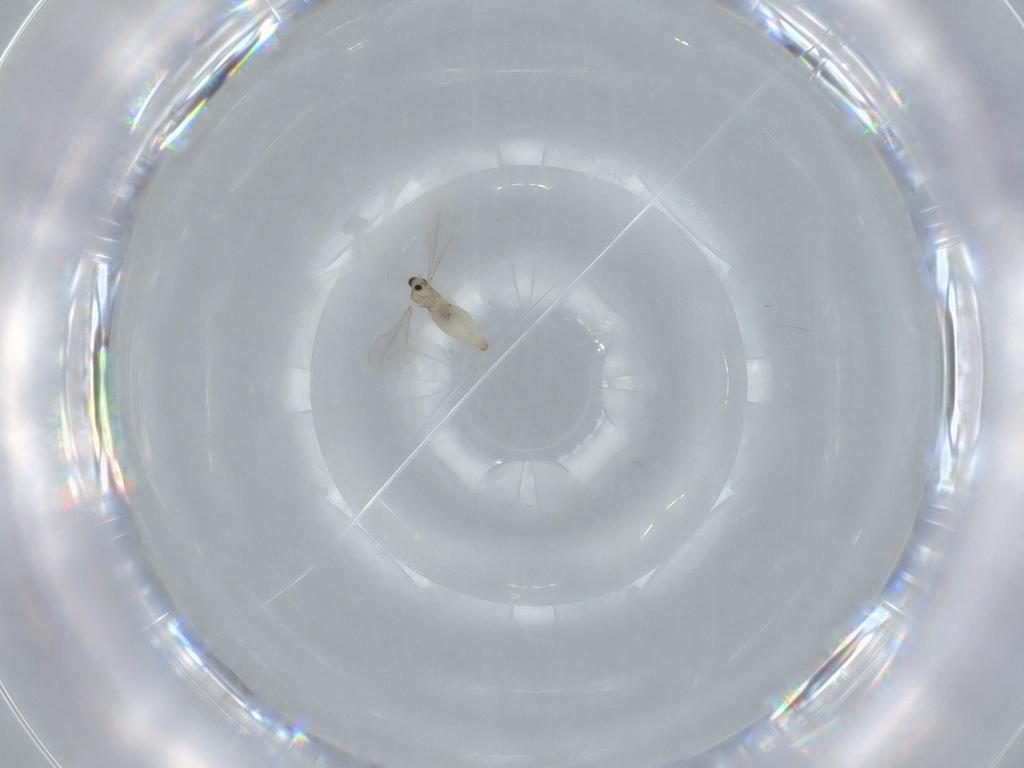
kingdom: Animalia
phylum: Arthropoda
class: Insecta
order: Diptera
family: Cecidomyiidae
